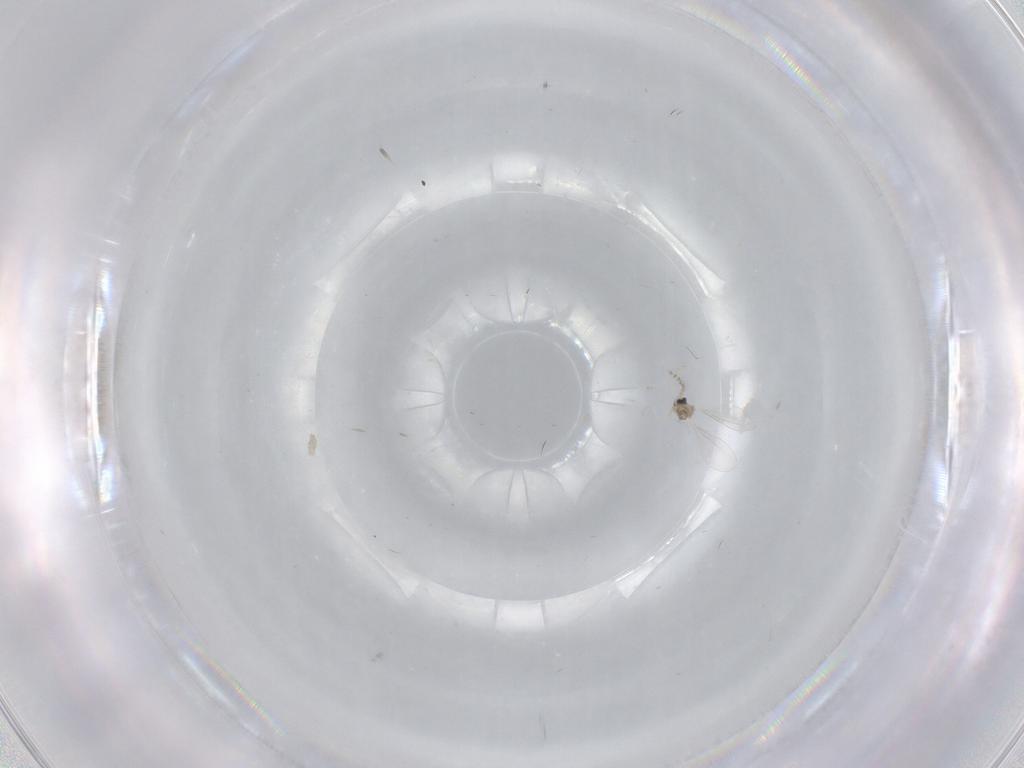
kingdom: Animalia
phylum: Arthropoda
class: Insecta
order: Diptera
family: Cecidomyiidae
